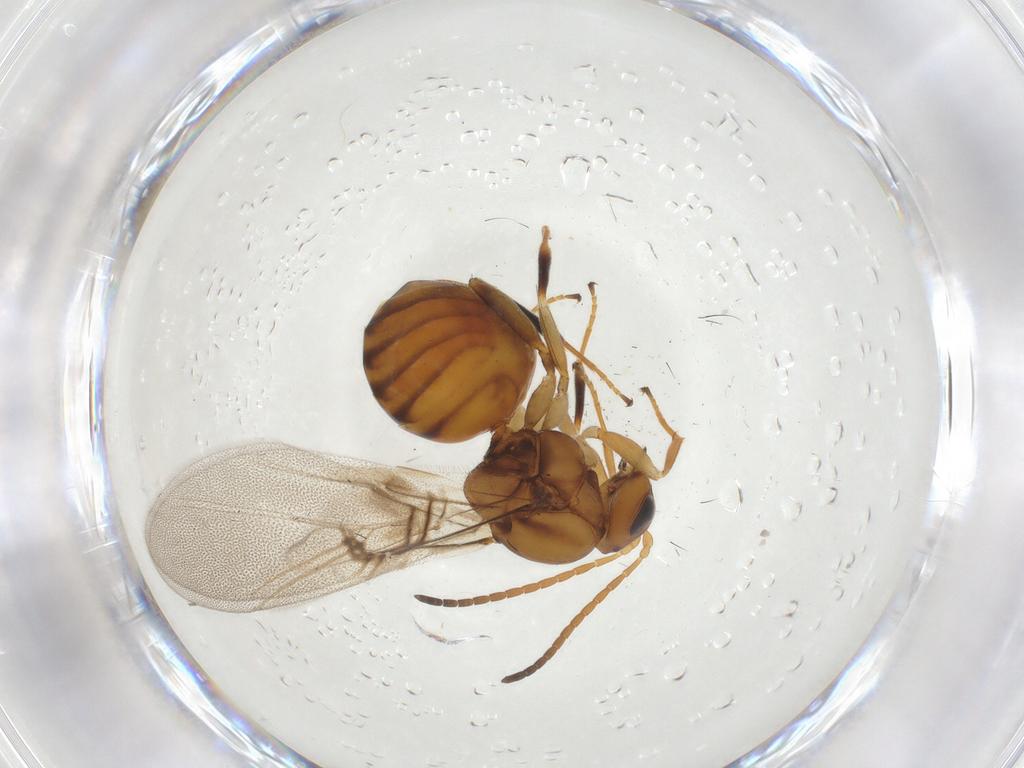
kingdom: Animalia
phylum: Arthropoda
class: Insecta
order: Hymenoptera
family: Cynipidae
